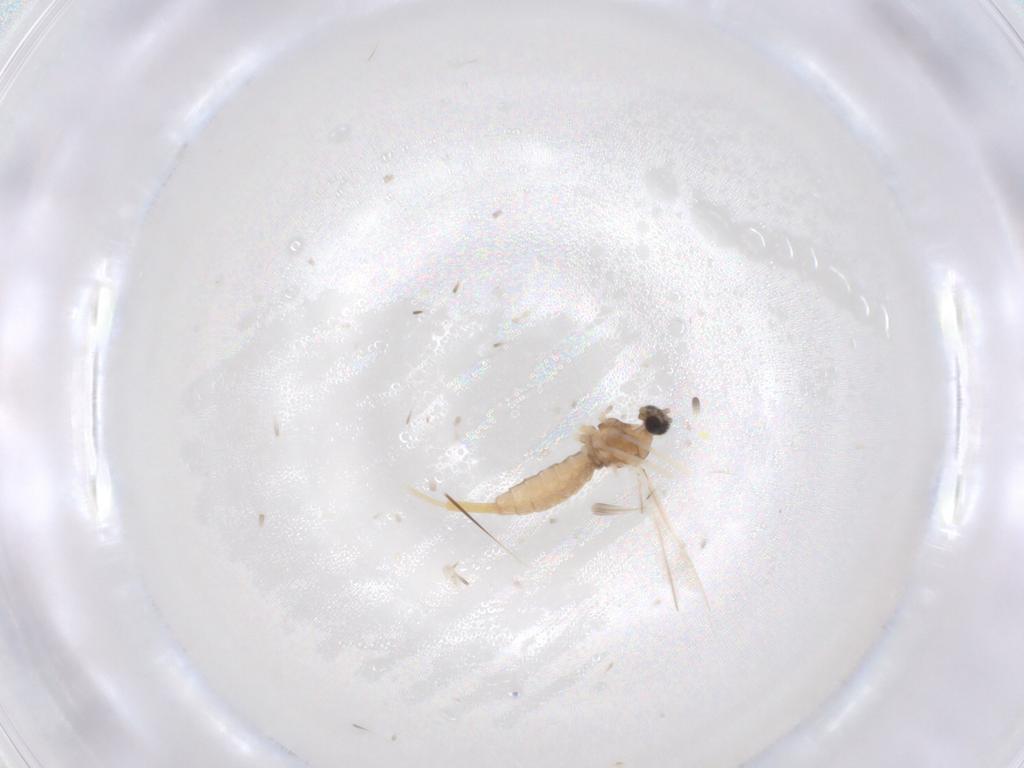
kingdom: Animalia
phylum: Arthropoda
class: Insecta
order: Diptera
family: Cecidomyiidae
